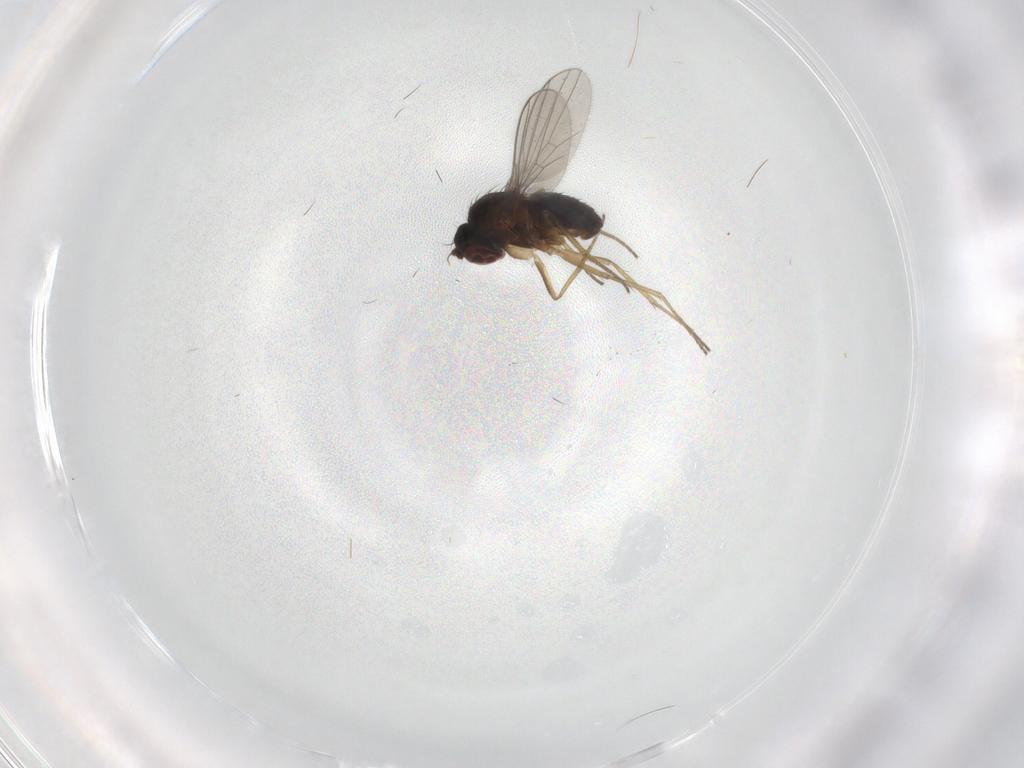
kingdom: Animalia
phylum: Arthropoda
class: Insecta
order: Diptera
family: Dolichopodidae
